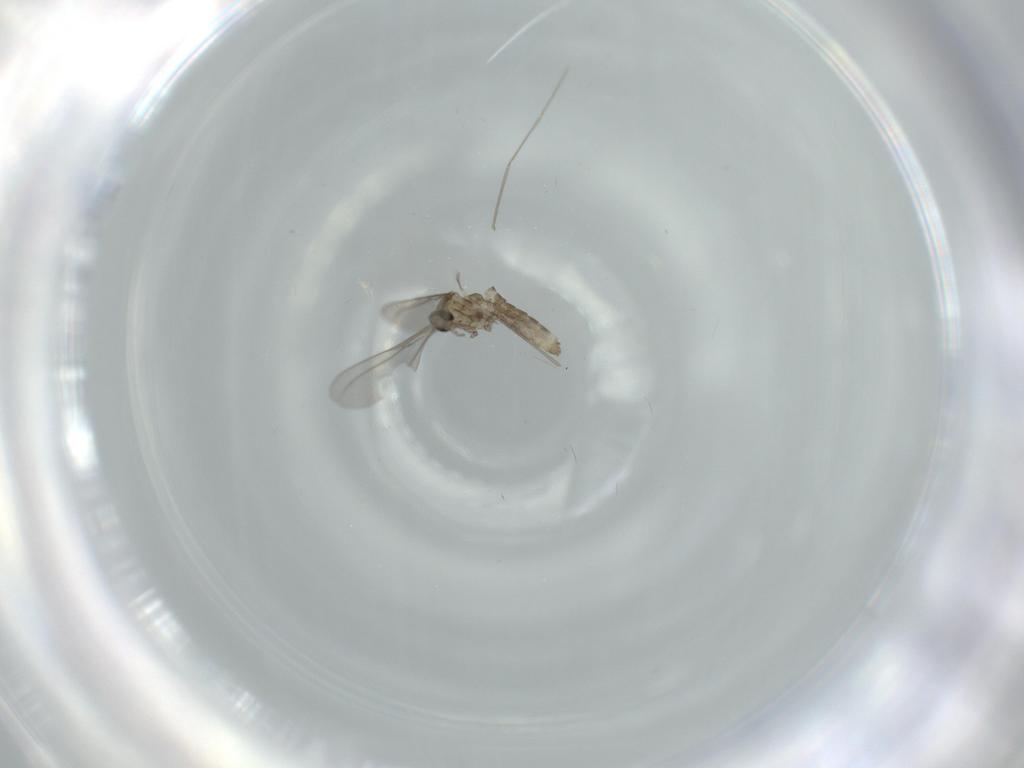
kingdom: Animalia
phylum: Arthropoda
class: Insecta
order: Diptera
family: Cecidomyiidae
